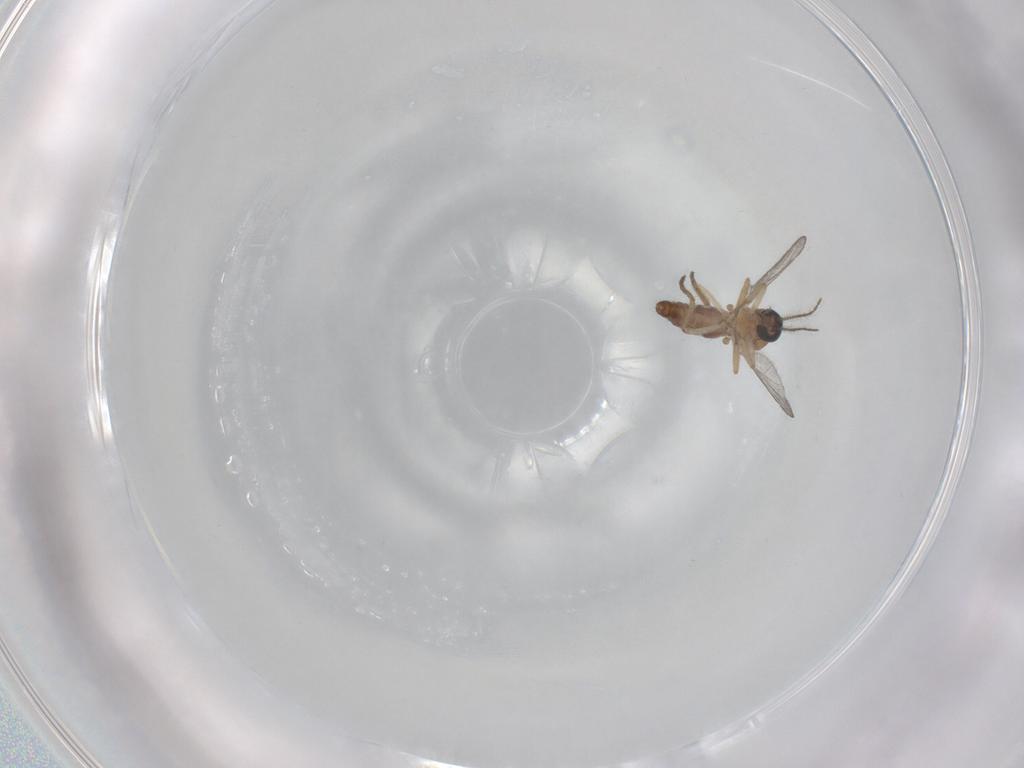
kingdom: Animalia
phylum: Arthropoda
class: Insecta
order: Diptera
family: Ceratopogonidae
